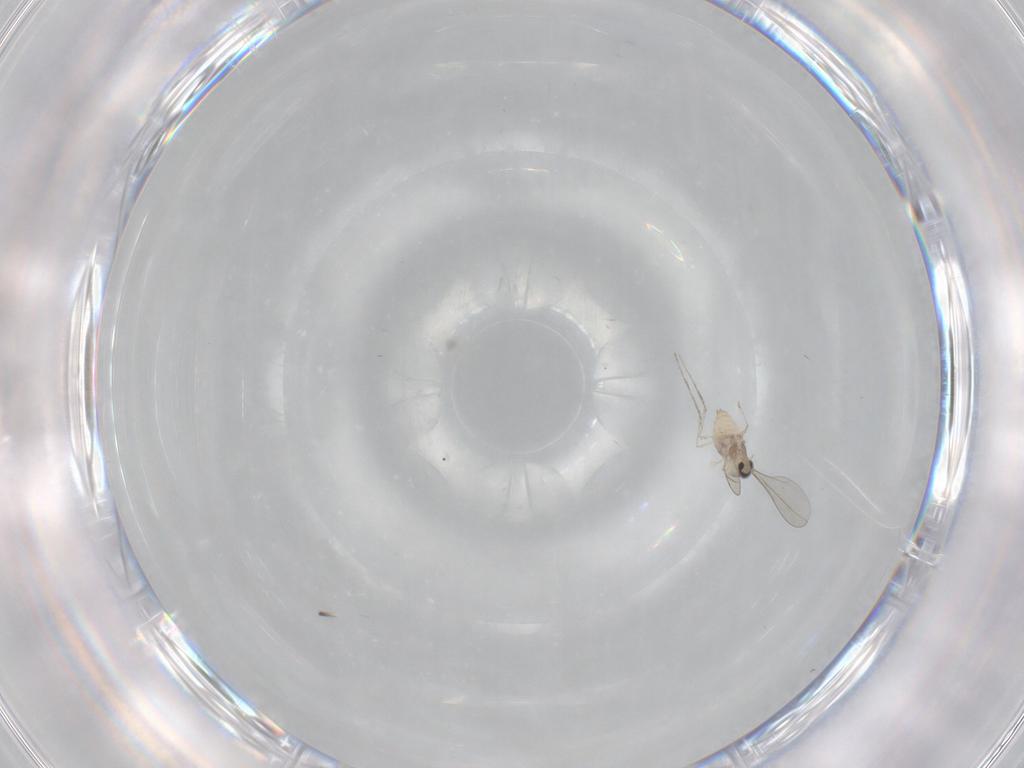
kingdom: Animalia
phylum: Arthropoda
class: Insecta
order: Diptera
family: Cecidomyiidae
